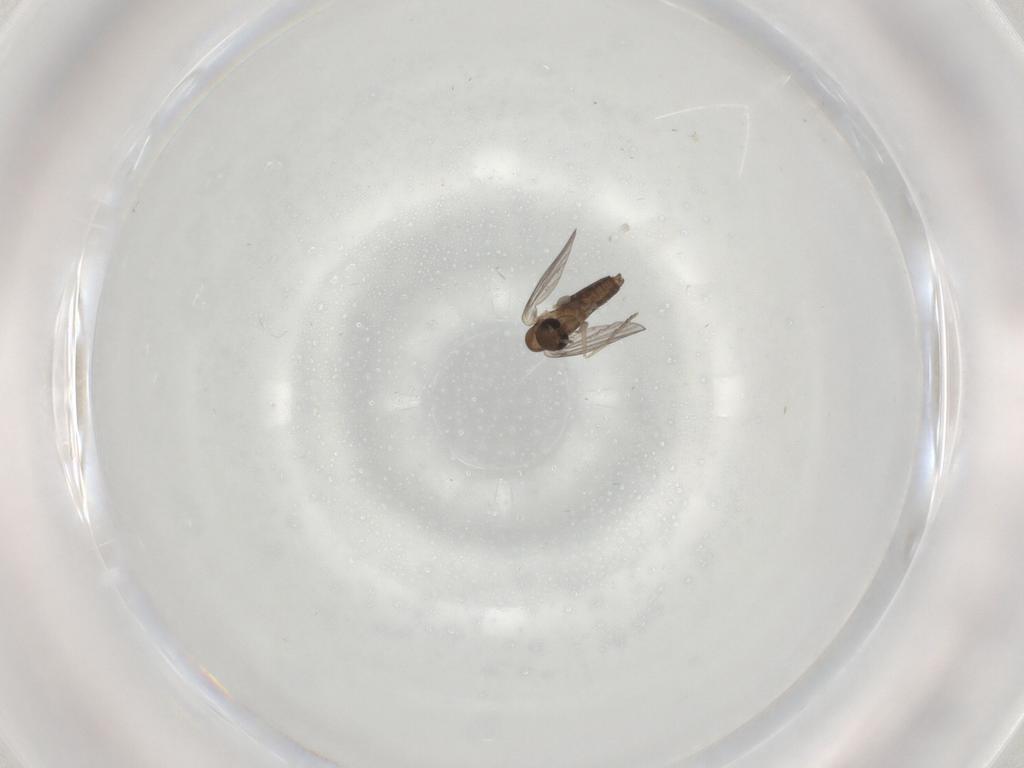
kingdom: Animalia
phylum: Arthropoda
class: Insecta
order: Diptera
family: Chironomidae
